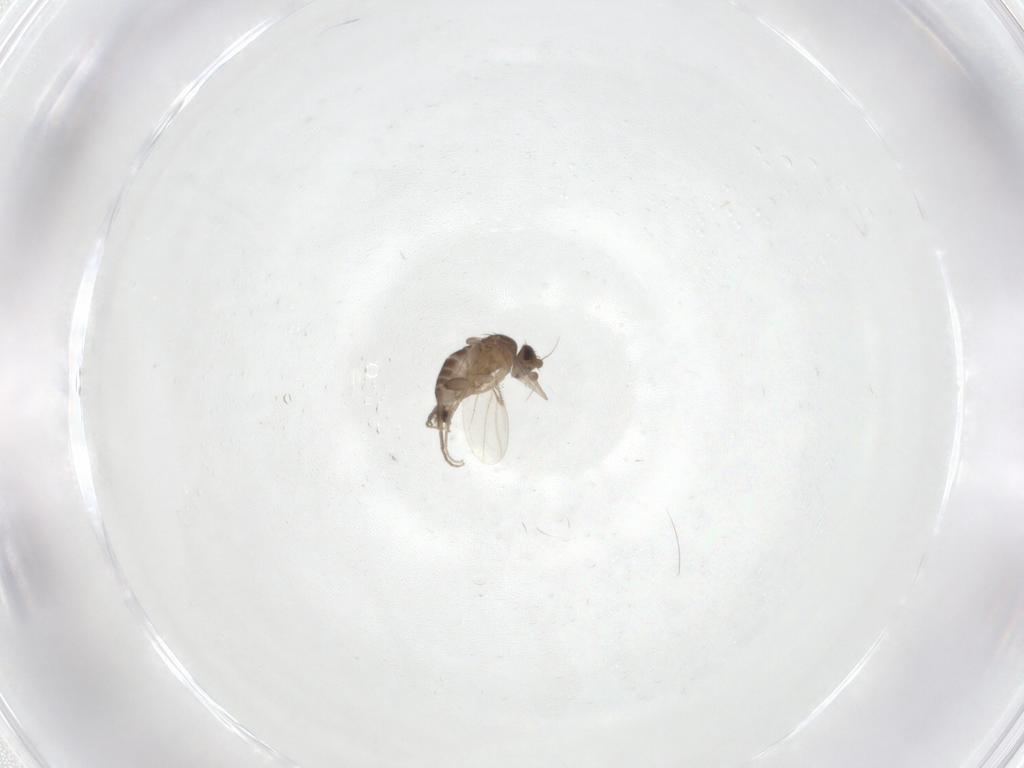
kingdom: Animalia
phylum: Arthropoda
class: Insecta
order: Diptera
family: Phoridae
